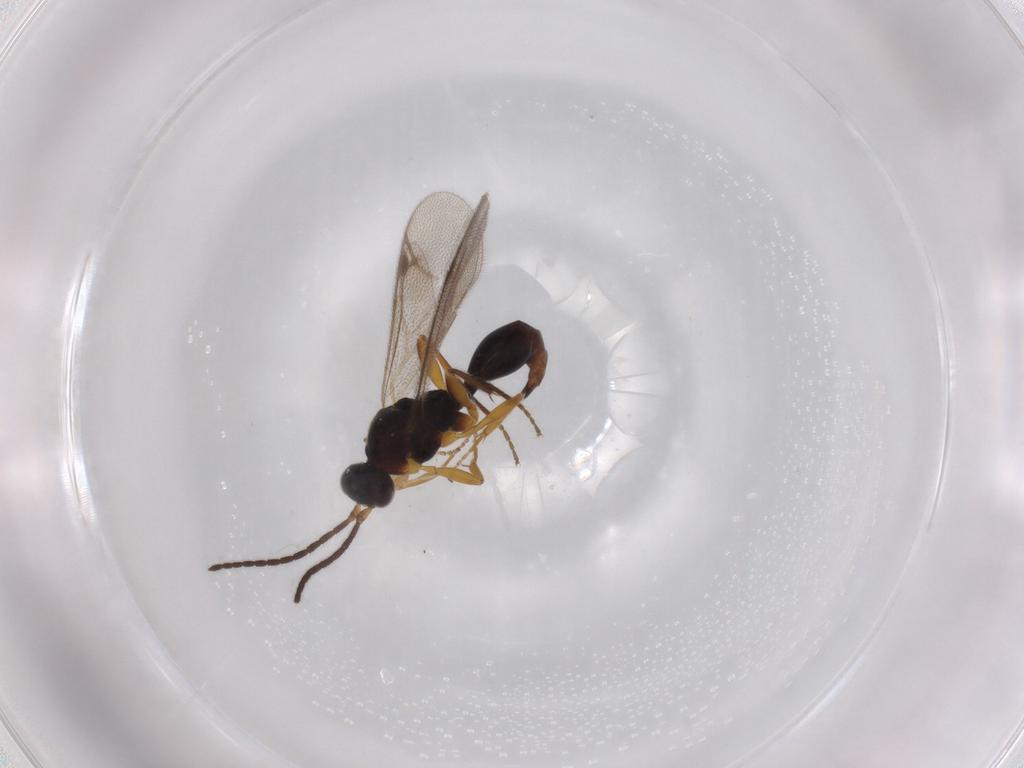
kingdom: Animalia
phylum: Arthropoda
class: Insecta
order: Hymenoptera
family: Proctotrupidae
